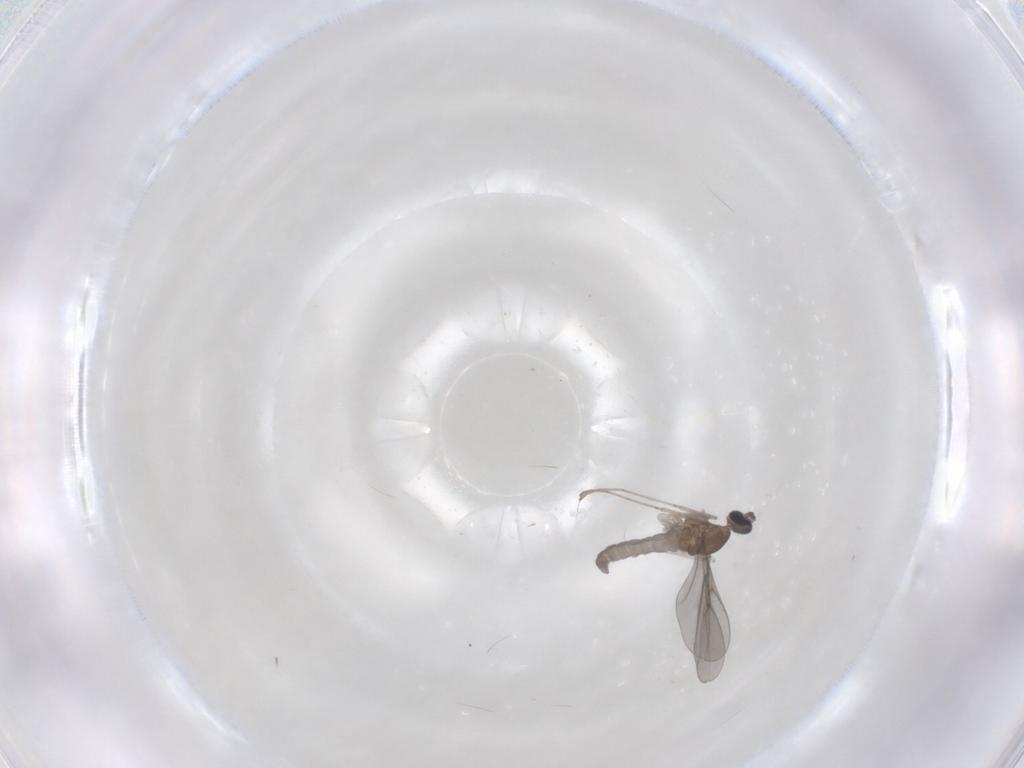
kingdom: Animalia
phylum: Arthropoda
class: Insecta
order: Diptera
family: Cecidomyiidae
